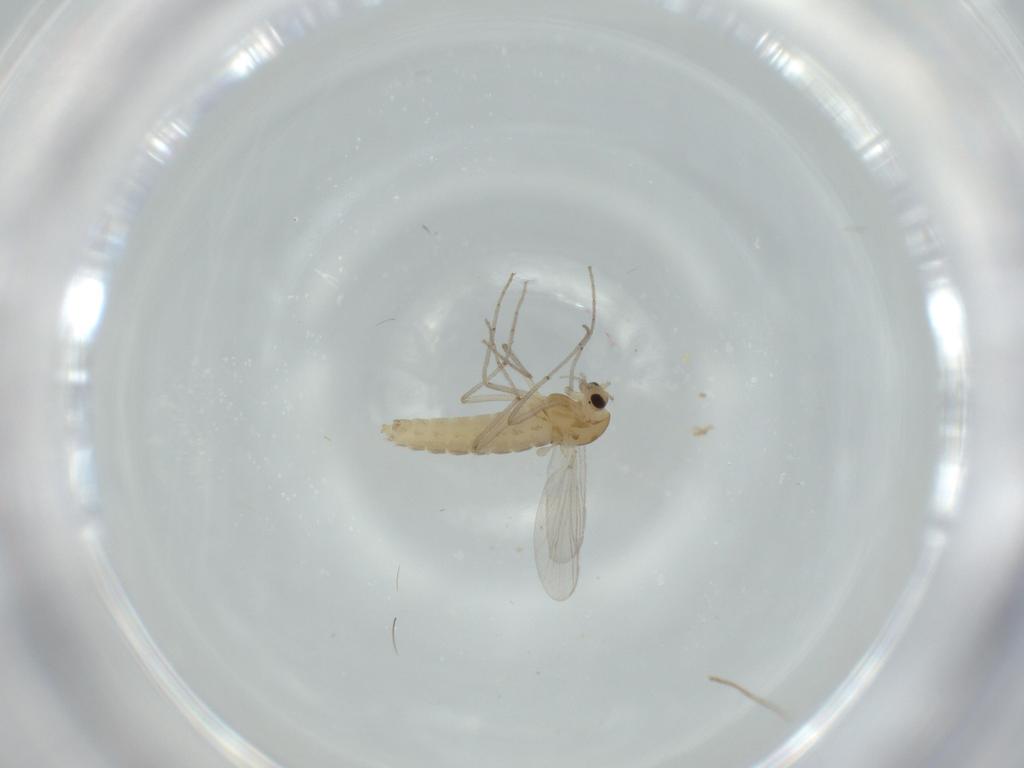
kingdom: Animalia
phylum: Arthropoda
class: Insecta
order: Diptera
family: Chironomidae
